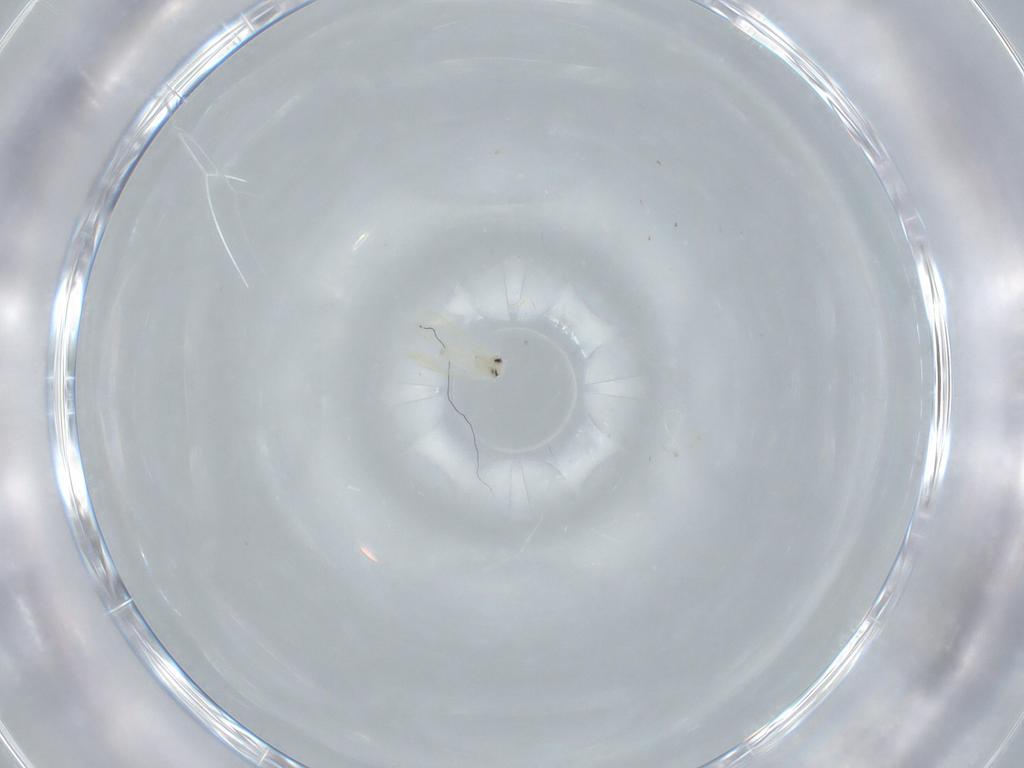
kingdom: Animalia
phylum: Arthropoda
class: Insecta
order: Hemiptera
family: Aleyrodidae
